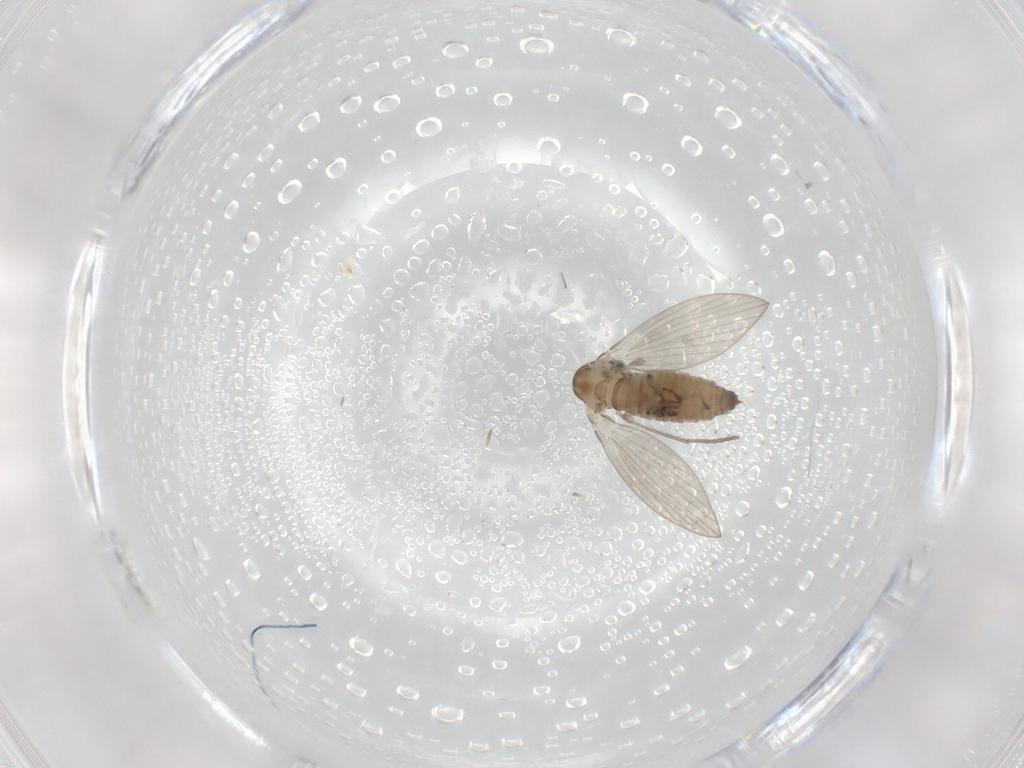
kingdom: Animalia
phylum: Arthropoda
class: Insecta
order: Diptera
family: Psychodidae
